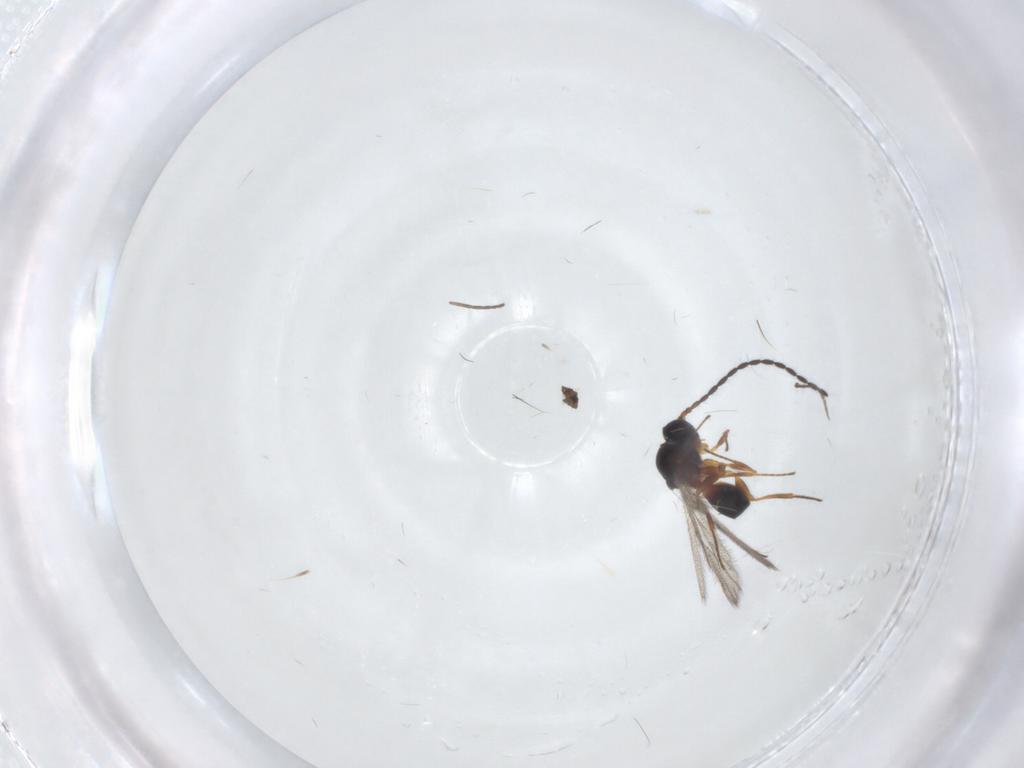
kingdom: Animalia
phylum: Arthropoda
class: Insecta
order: Hymenoptera
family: Figitidae
